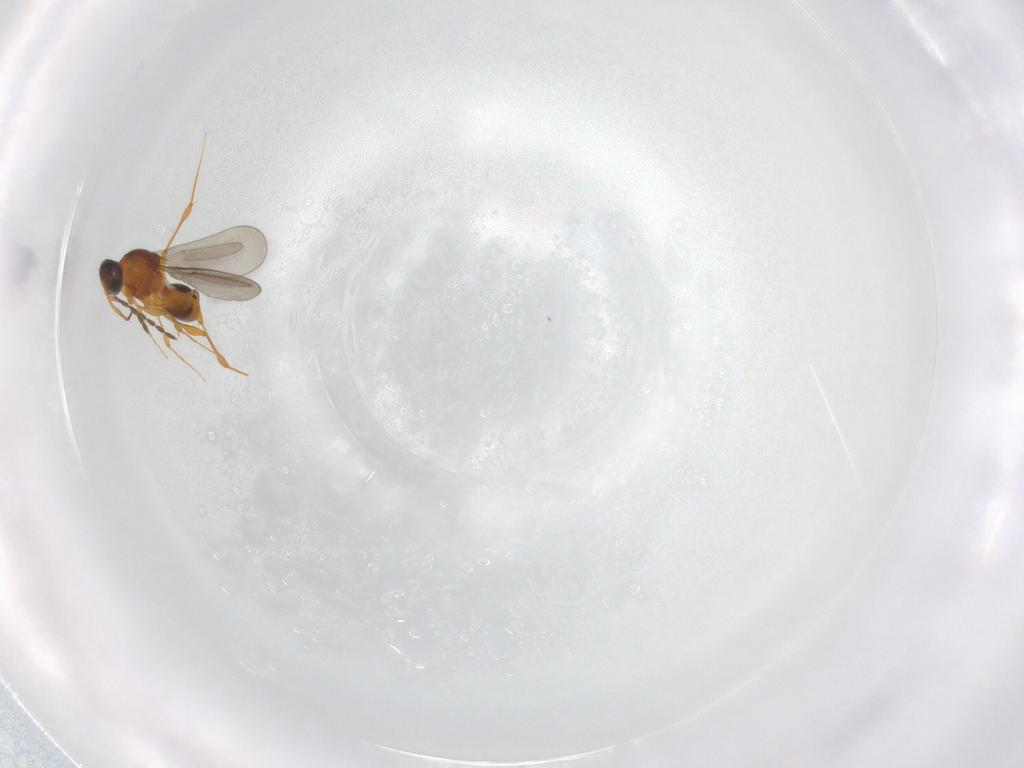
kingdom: Animalia
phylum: Arthropoda
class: Insecta
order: Hymenoptera
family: Platygastridae
